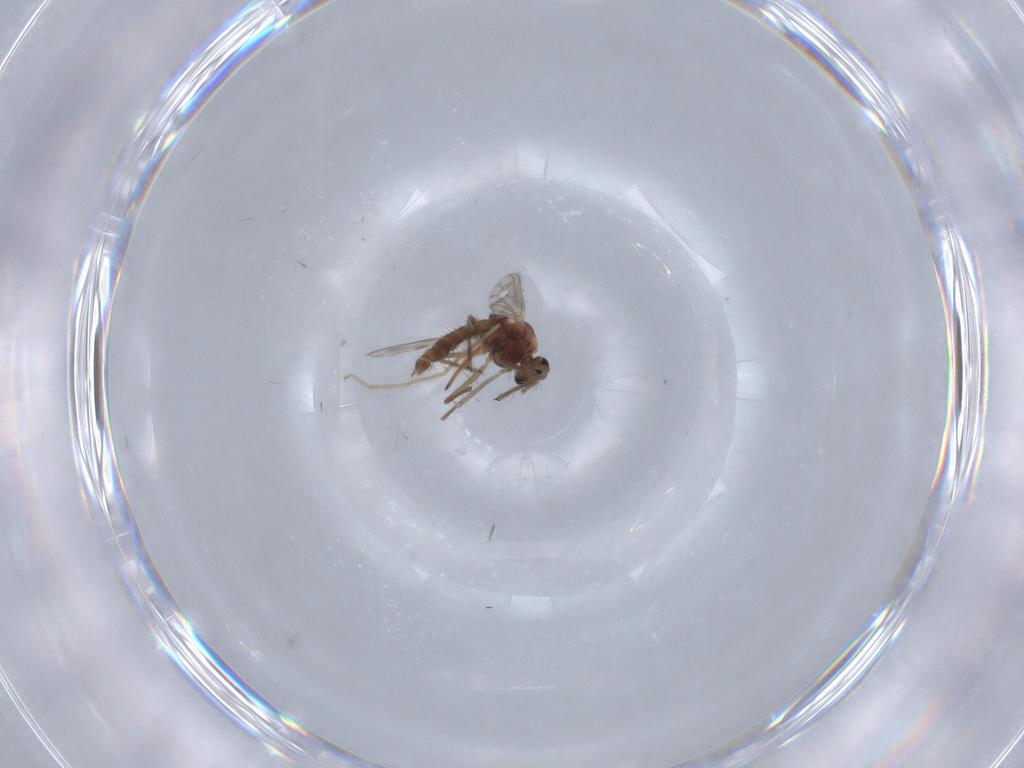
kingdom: Animalia
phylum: Arthropoda
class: Insecta
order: Diptera
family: Chironomidae
